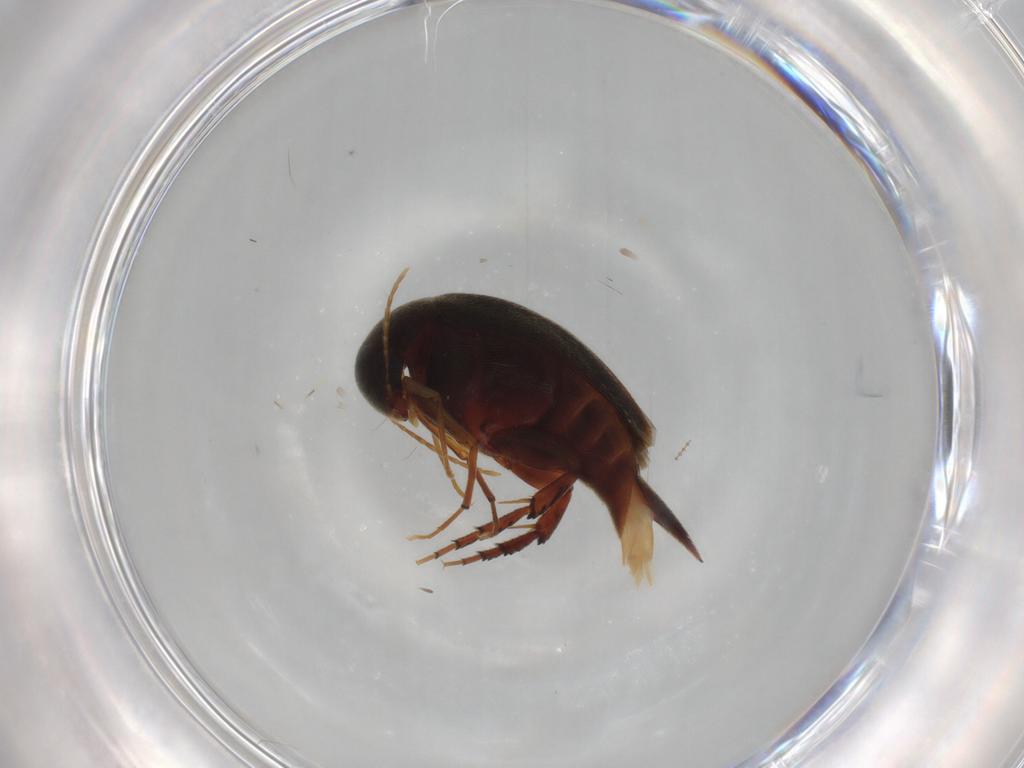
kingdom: Animalia
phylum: Arthropoda
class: Insecta
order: Coleoptera
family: Mordellidae
